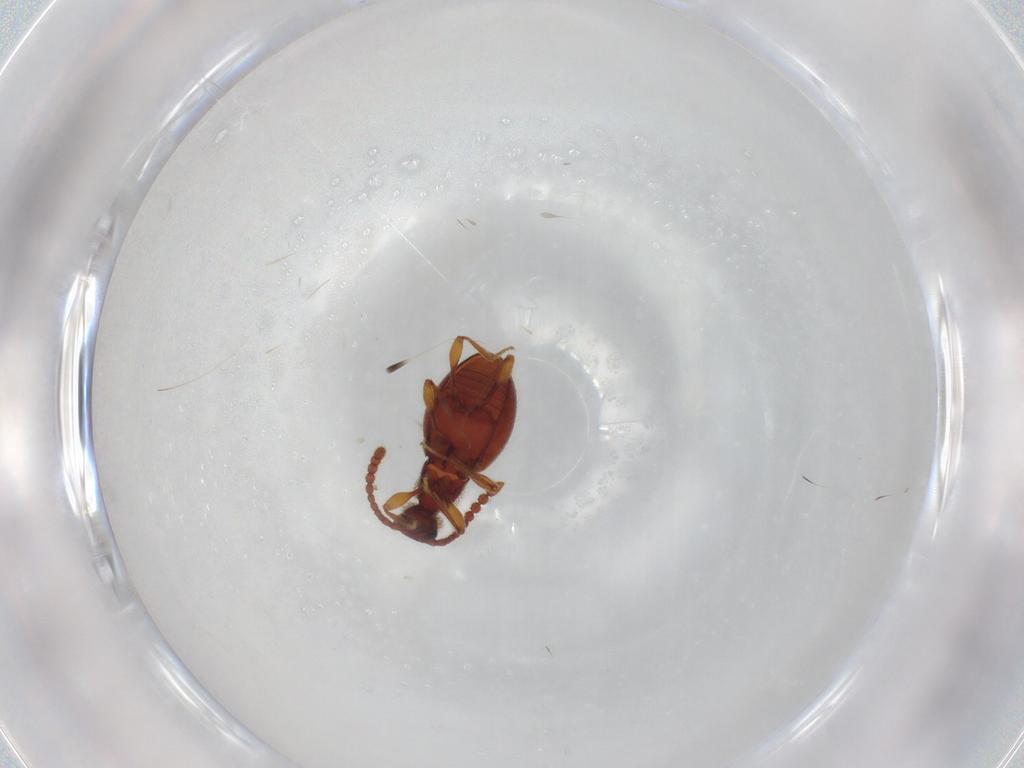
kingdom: Animalia
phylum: Arthropoda
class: Insecta
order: Coleoptera
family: Staphylinidae
